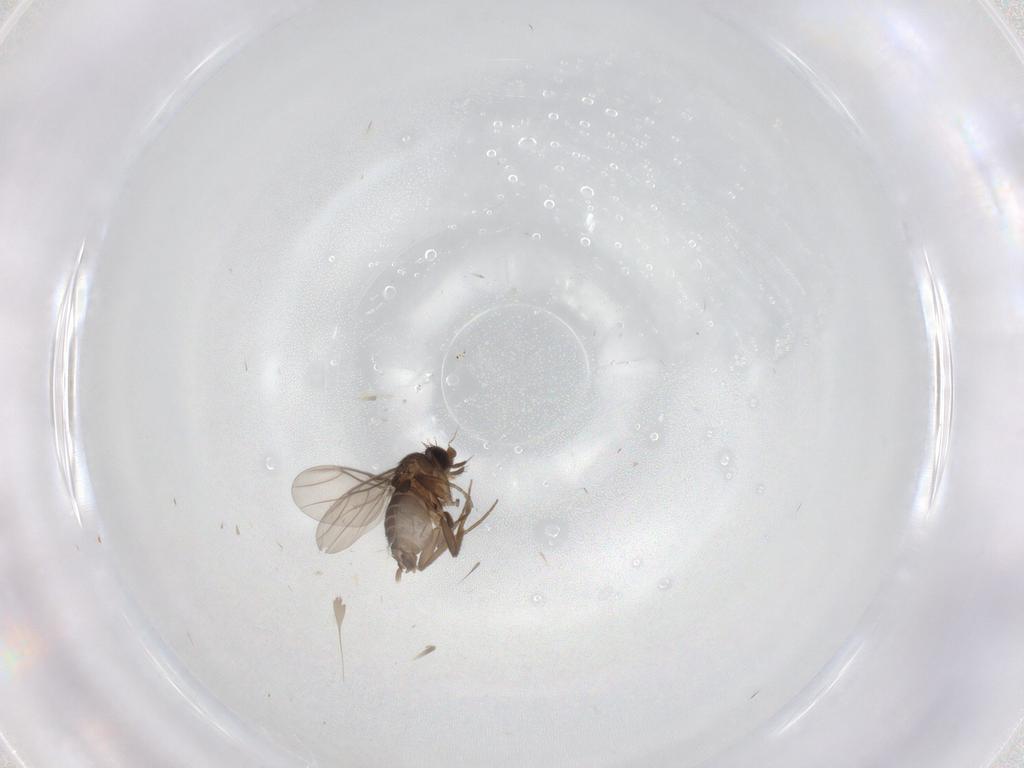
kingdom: Animalia
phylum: Arthropoda
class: Insecta
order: Diptera
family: Phoridae
